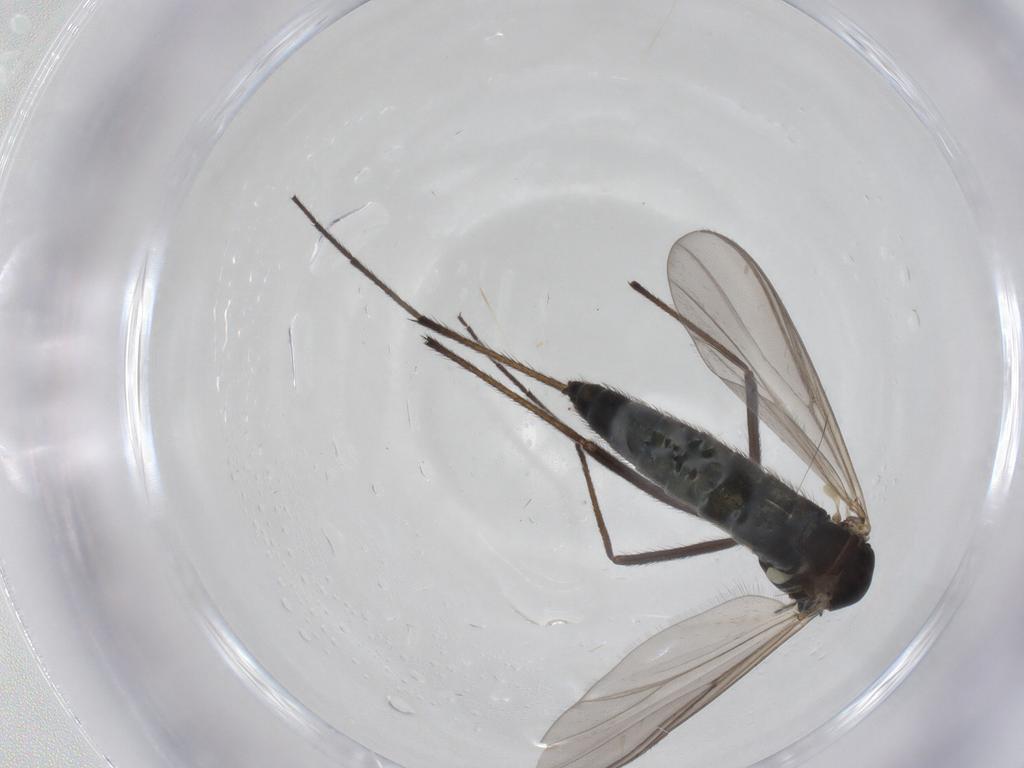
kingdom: Animalia
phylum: Arthropoda
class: Insecta
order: Diptera
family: Chironomidae
